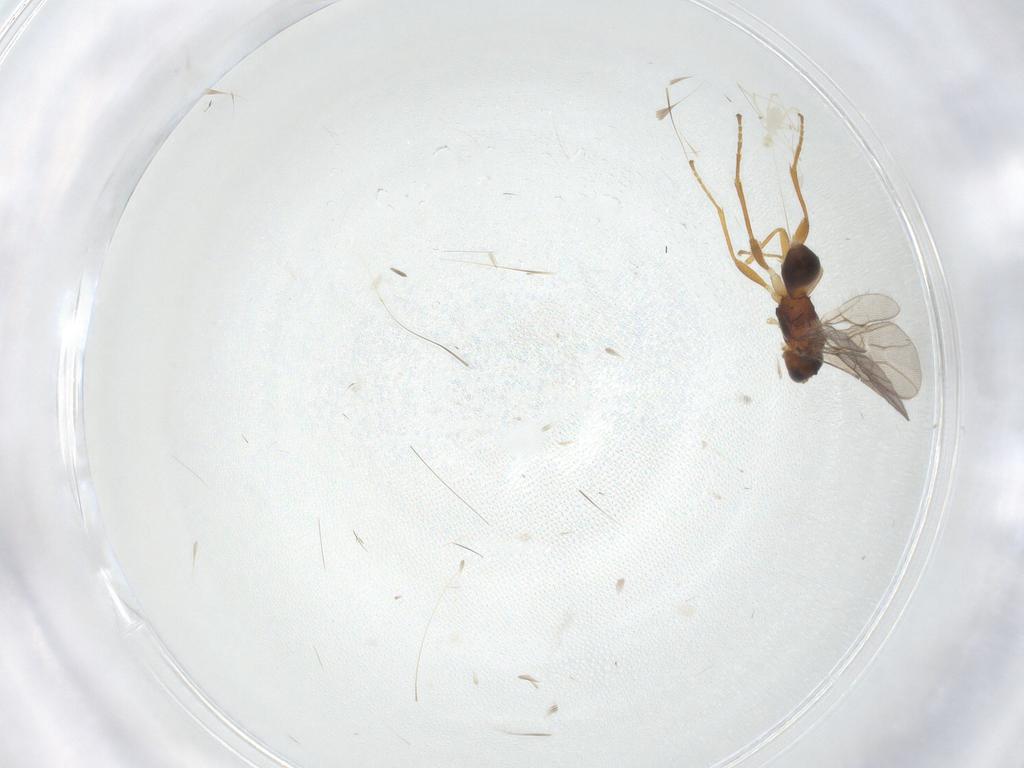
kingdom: Animalia
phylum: Arthropoda
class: Insecta
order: Hymenoptera
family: Braconidae
